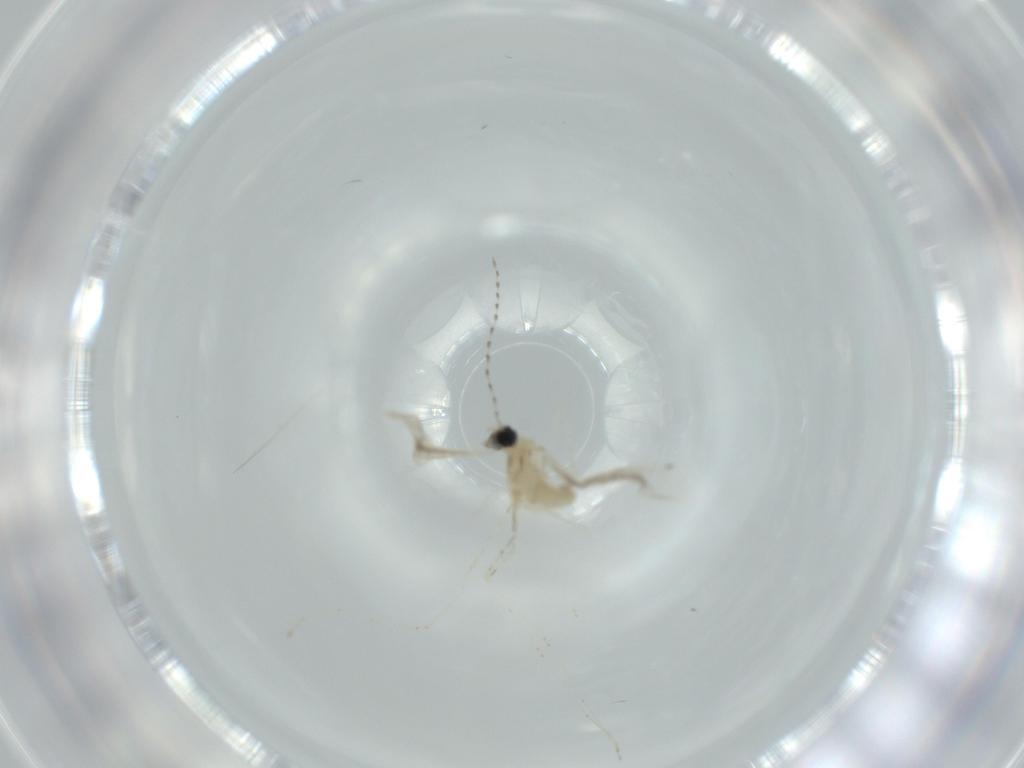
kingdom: Animalia
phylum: Arthropoda
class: Insecta
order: Diptera
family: Cecidomyiidae
